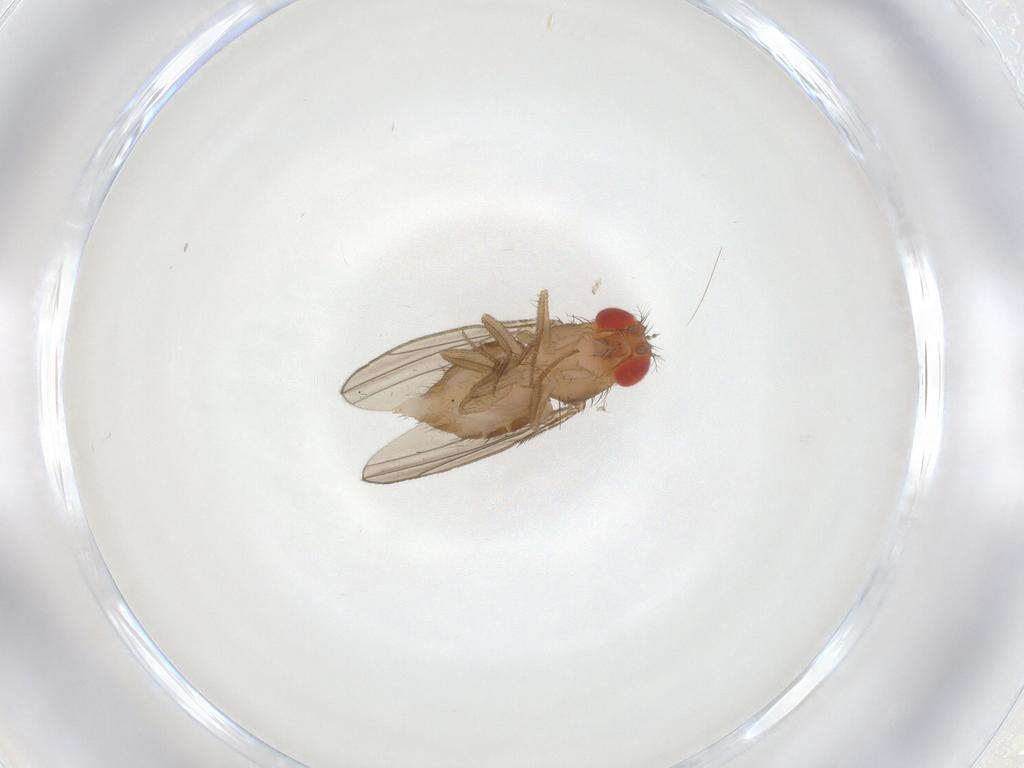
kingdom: Animalia
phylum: Arthropoda
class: Insecta
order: Diptera
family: Drosophilidae
